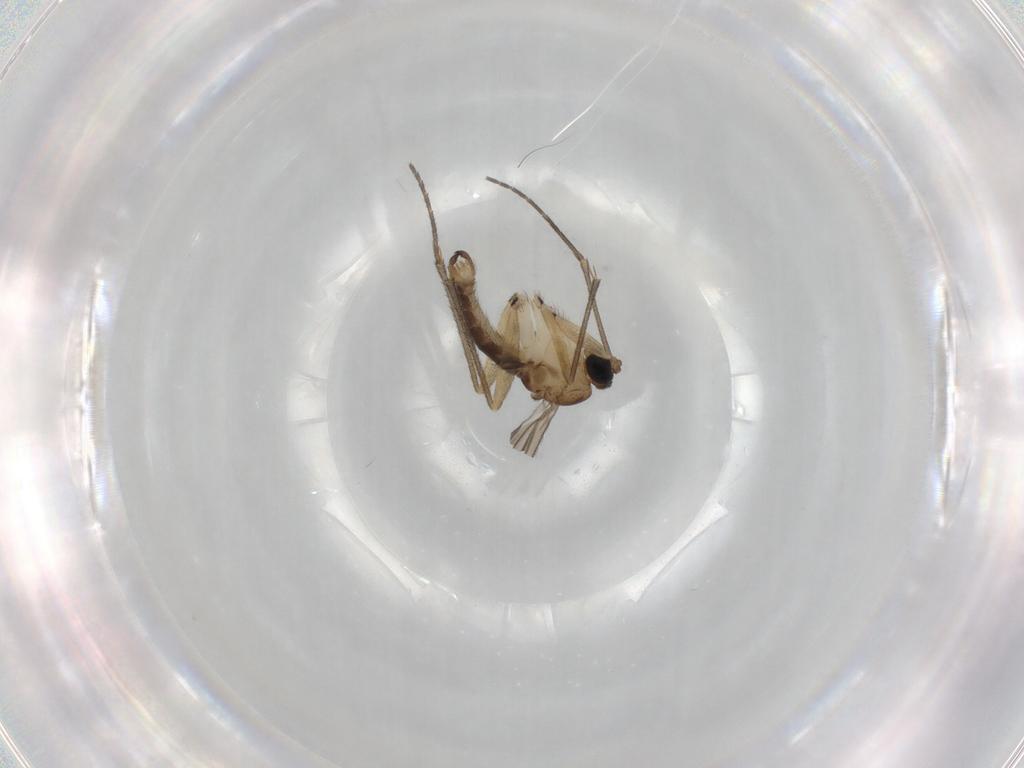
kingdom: Animalia
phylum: Arthropoda
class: Insecta
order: Diptera
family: Sciaridae
